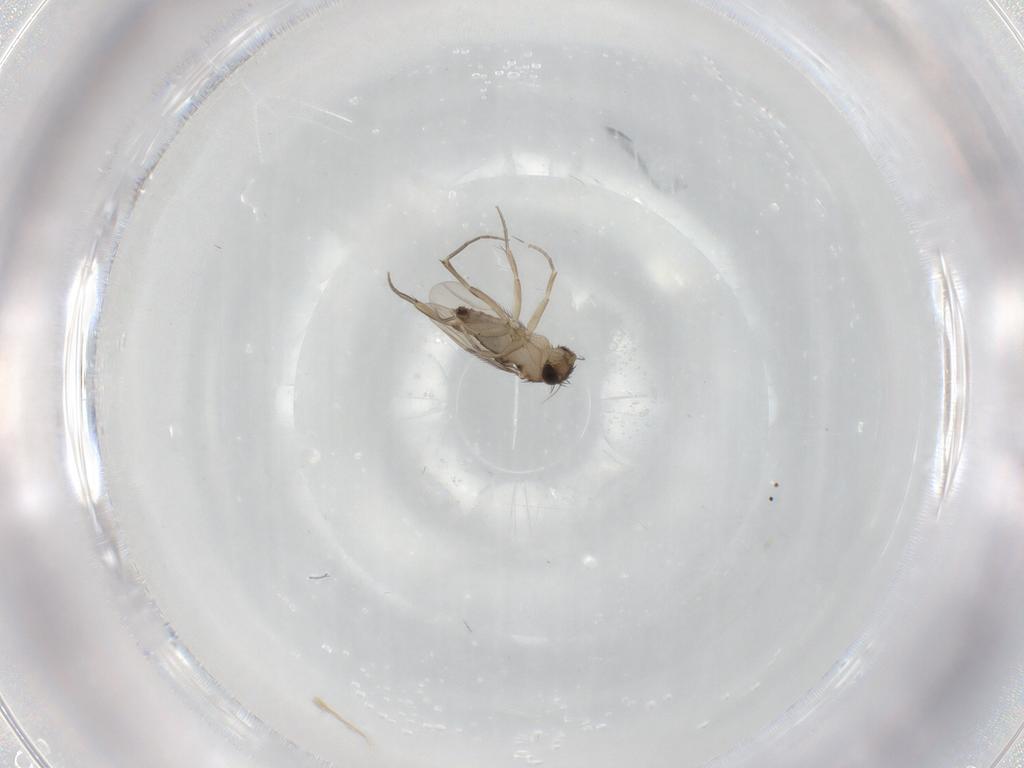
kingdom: Animalia
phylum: Arthropoda
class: Insecta
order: Diptera
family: Phoridae
